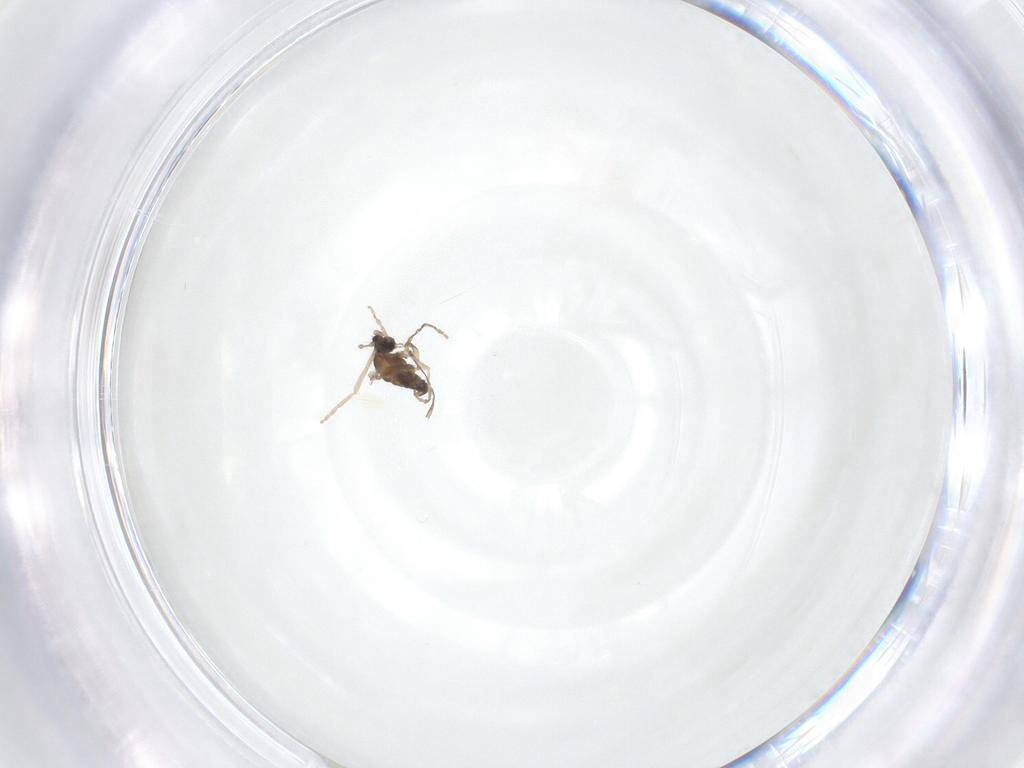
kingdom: Animalia
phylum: Arthropoda
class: Insecta
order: Diptera
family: Cecidomyiidae
